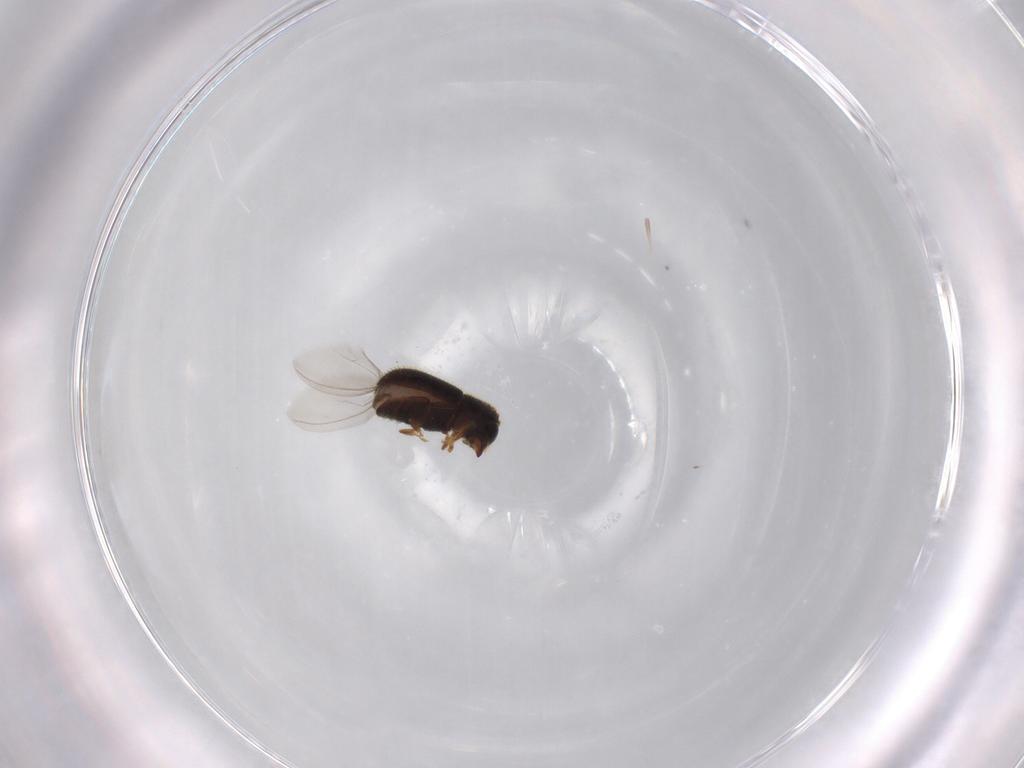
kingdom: Animalia
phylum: Arthropoda
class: Insecta
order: Coleoptera
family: Curculionidae
